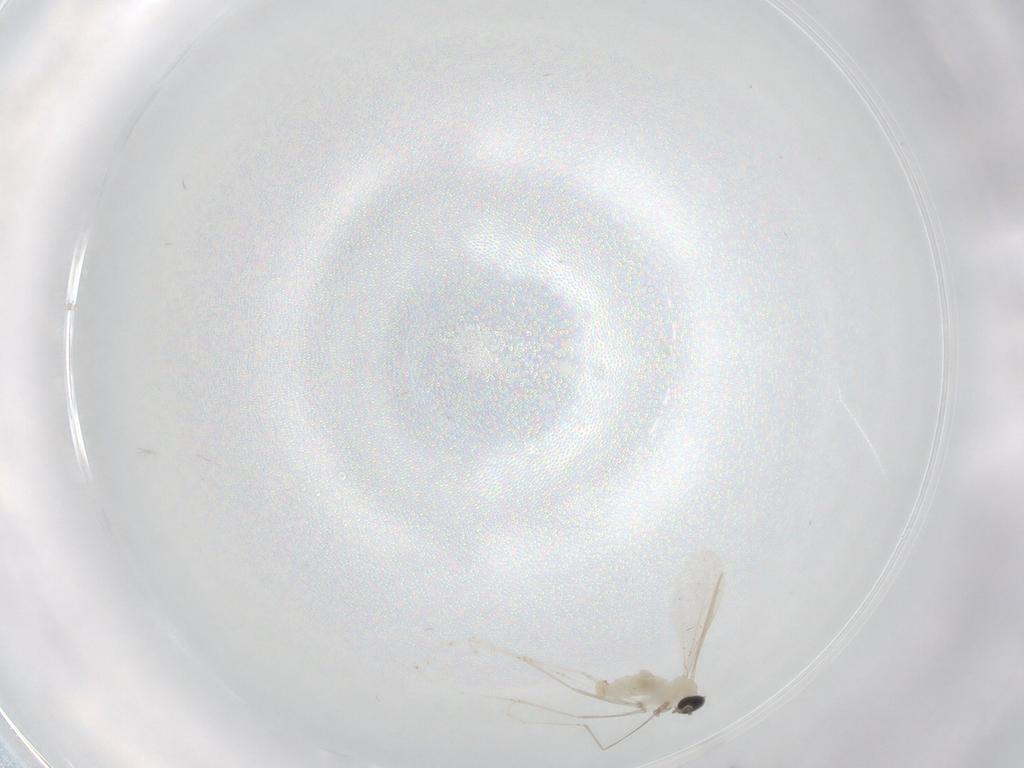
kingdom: Animalia
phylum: Arthropoda
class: Insecta
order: Diptera
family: Cecidomyiidae
